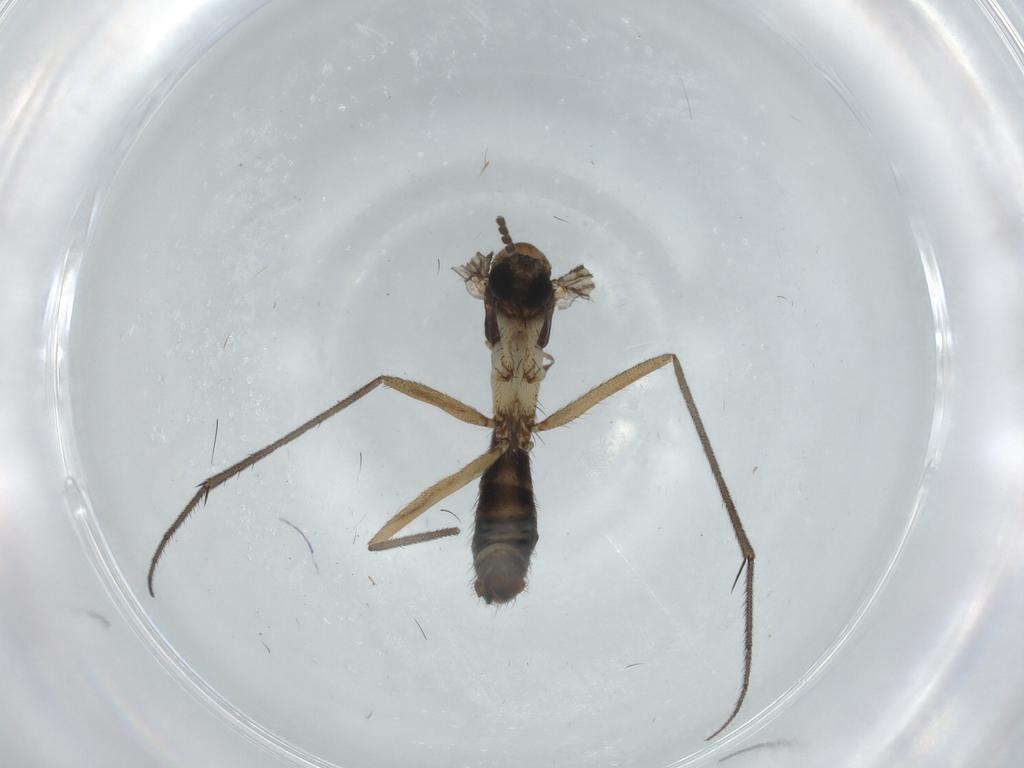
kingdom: Animalia
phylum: Arthropoda
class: Insecta
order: Diptera
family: Ditomyiidae
